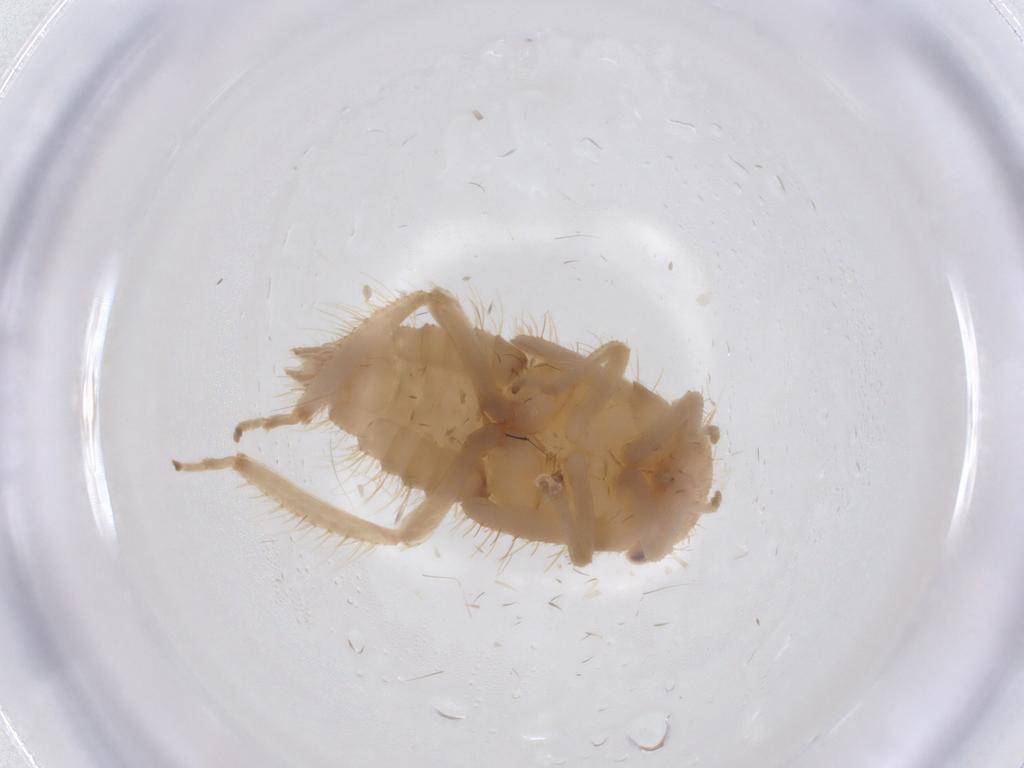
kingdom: Animalia
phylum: Arthropoda
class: Insecta
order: Hemiptera
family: Cicadellidae
